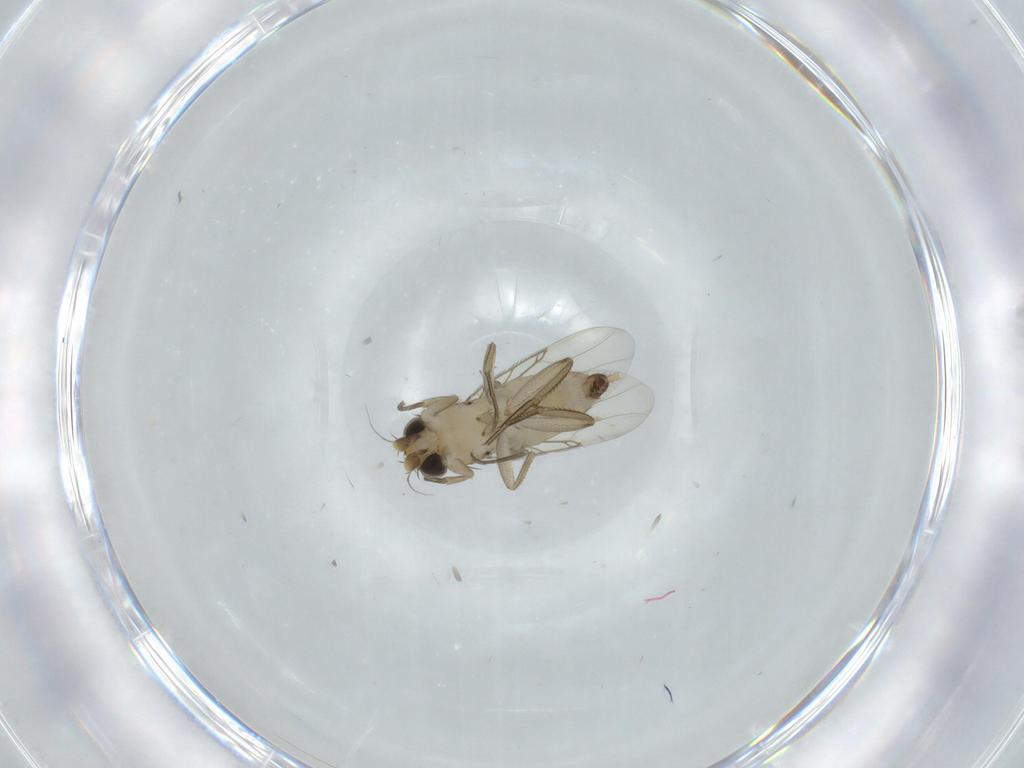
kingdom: Animalia
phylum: Arthropoda
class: Insecta
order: Diptera
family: Phoridae
